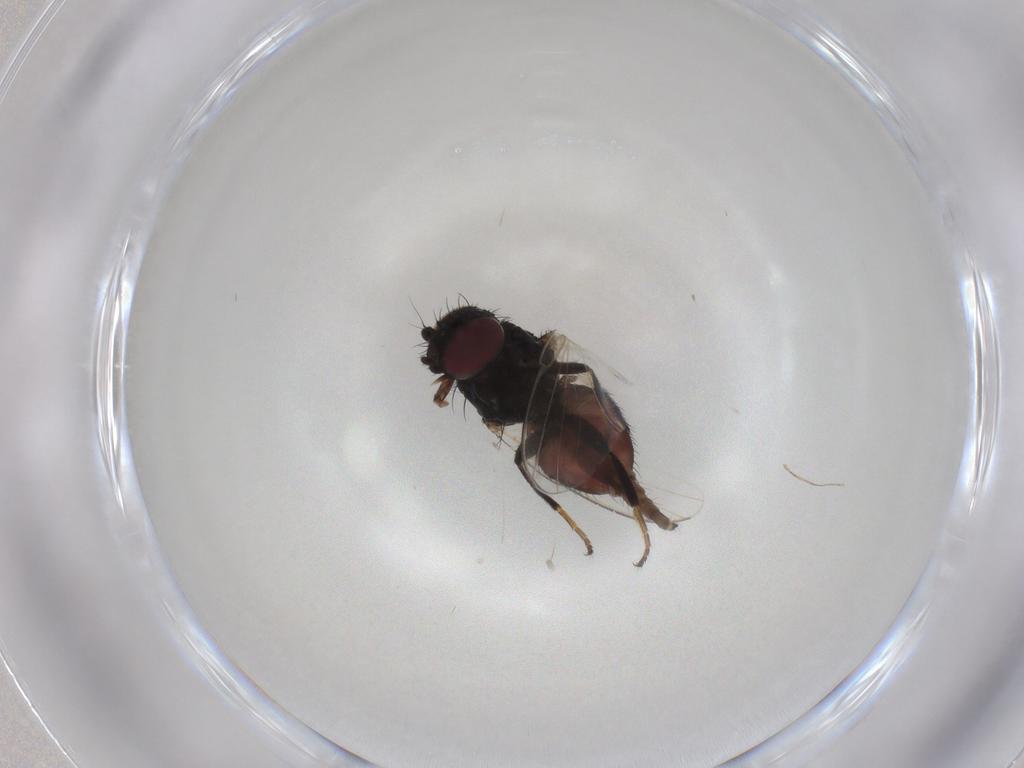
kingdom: Animalia
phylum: Arthropoda
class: Insecta
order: Diptera
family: Milichiidae
